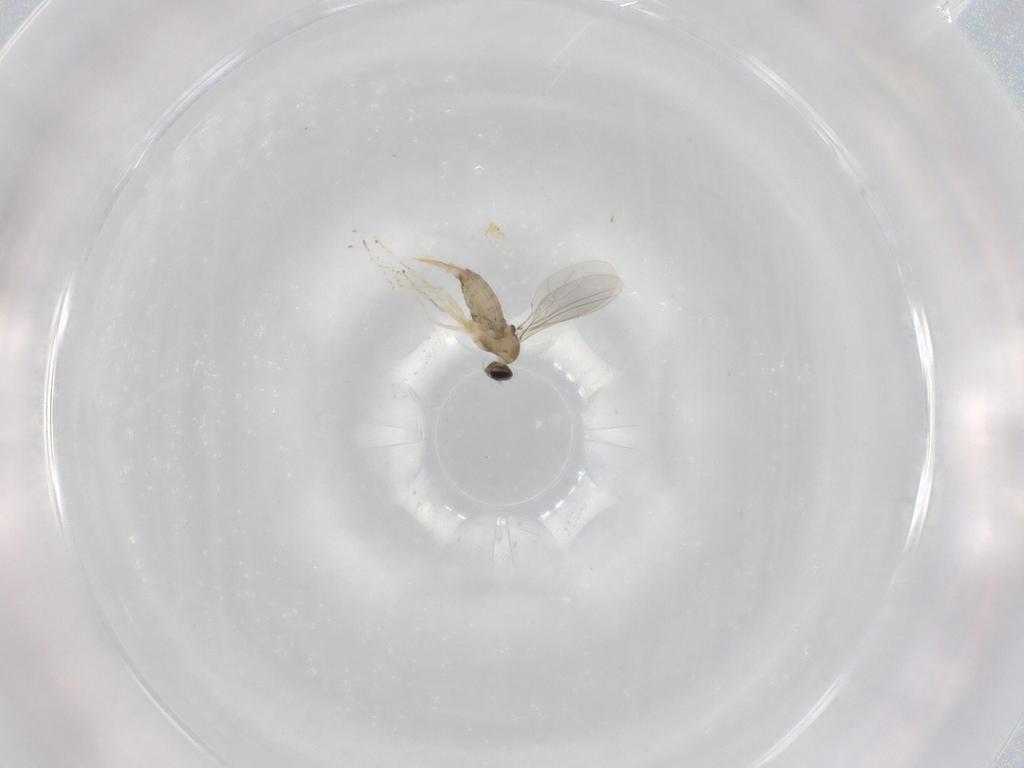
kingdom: Animalia
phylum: Arthropoda
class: Insecta
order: Diptera
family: Cecidomyiidae
